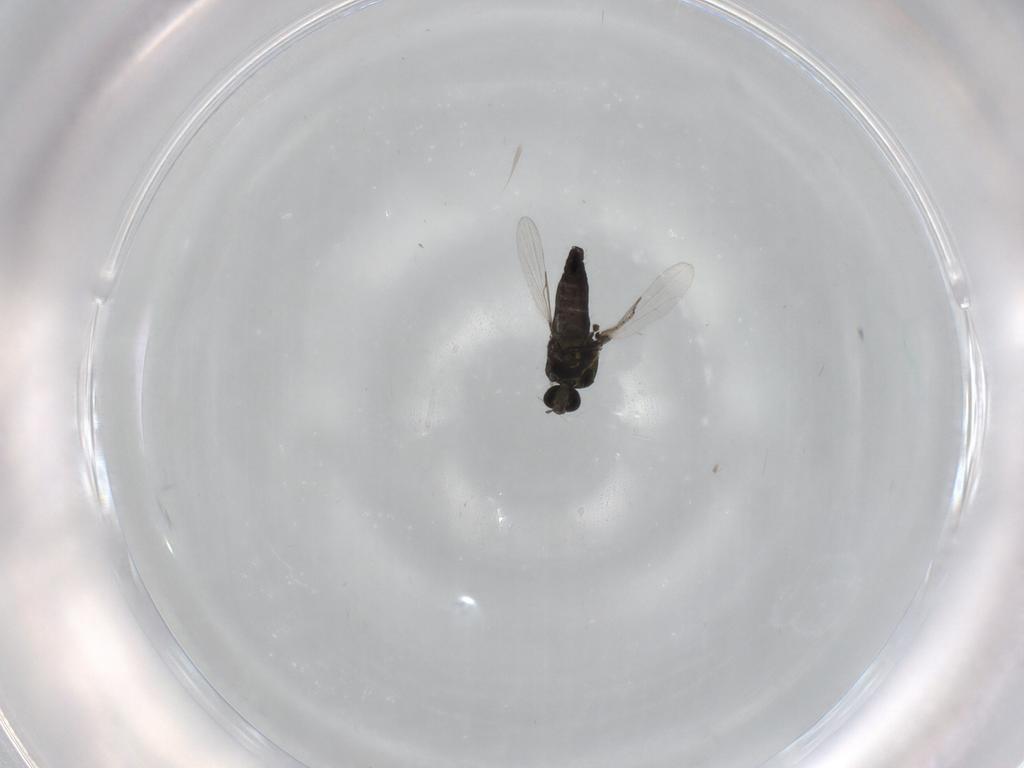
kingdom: Animalia
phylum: Arthropoda
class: Insecta
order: Diptera
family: Ceratopogonidae
